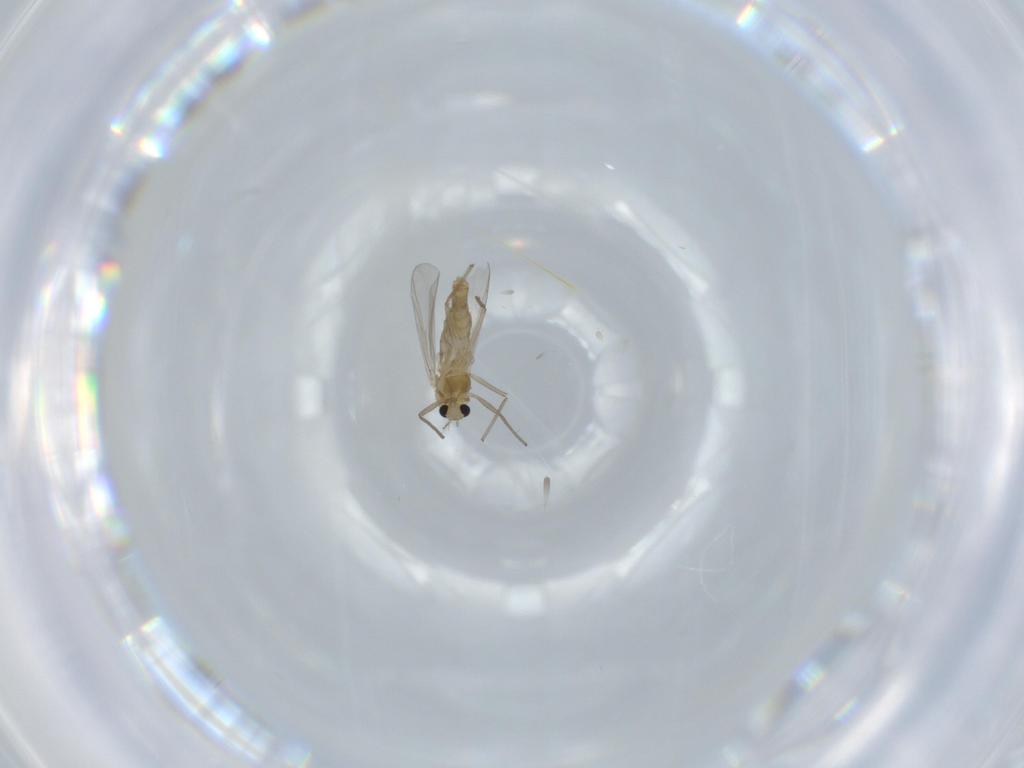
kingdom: Animalia
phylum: Arthropoda
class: Insecta
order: Diptera
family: Chironomidae
